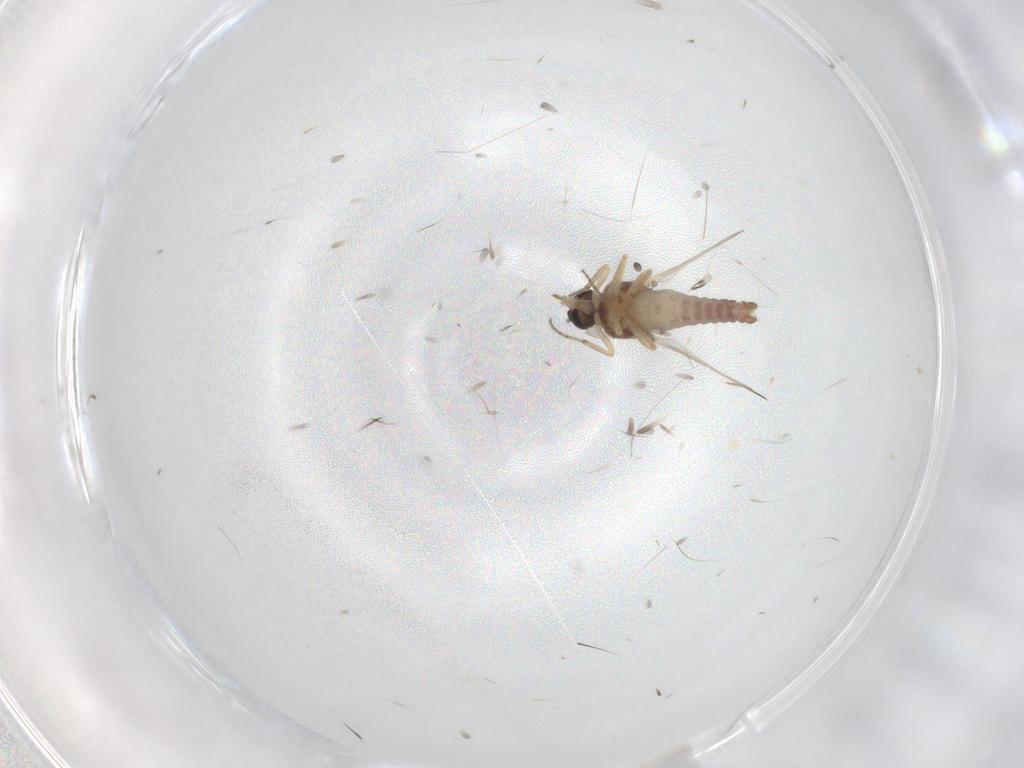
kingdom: Animalia
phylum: Arthropoda
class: Insecta
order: Diptera
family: Ceratopogonidae
